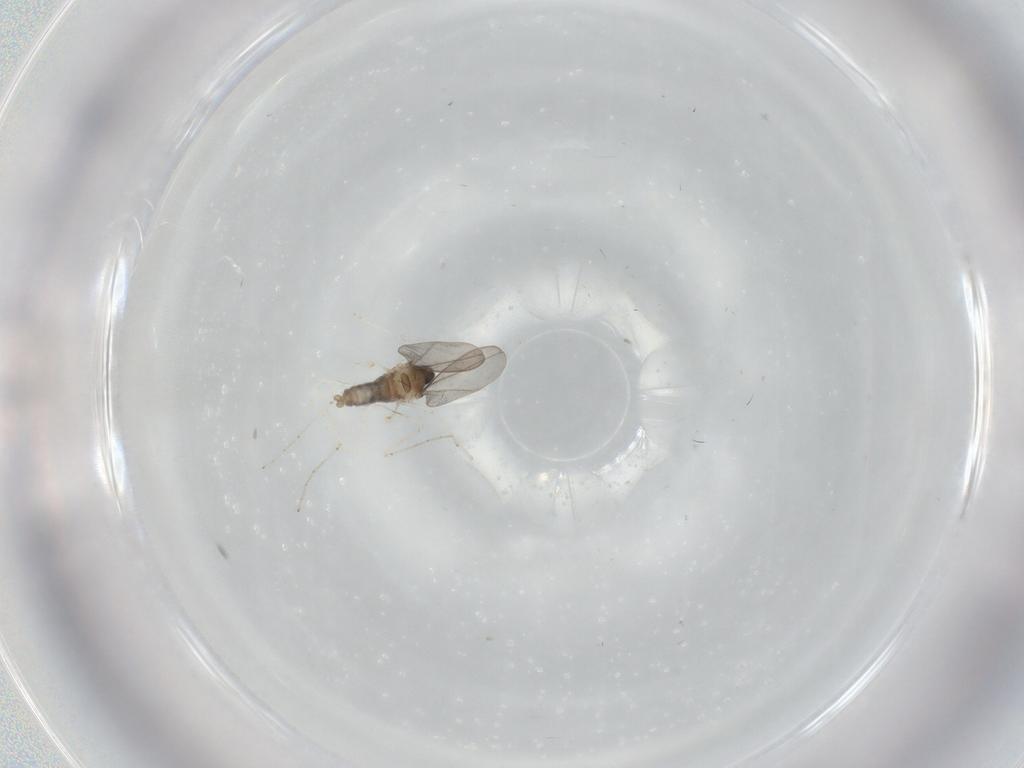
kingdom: Animalia
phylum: Arthropoda
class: Insecta
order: Diptera
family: Cecidomyiidae
